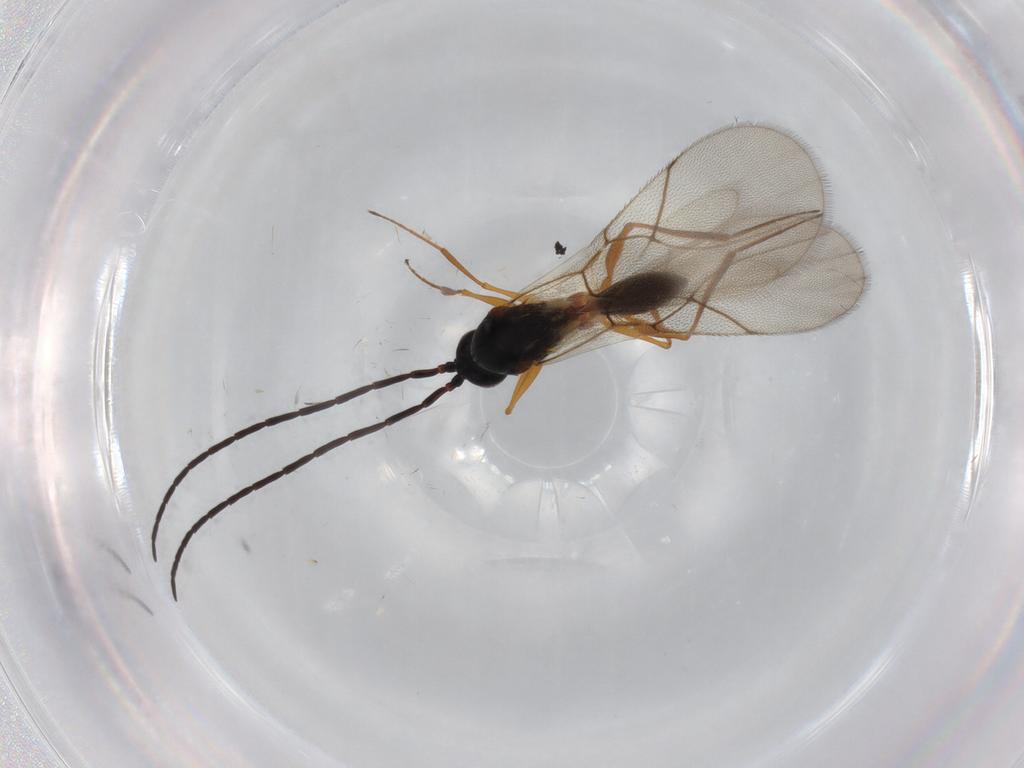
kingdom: Animalia
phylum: Arthropoda
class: Insecta
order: Hymenoptera
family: Figitidae
